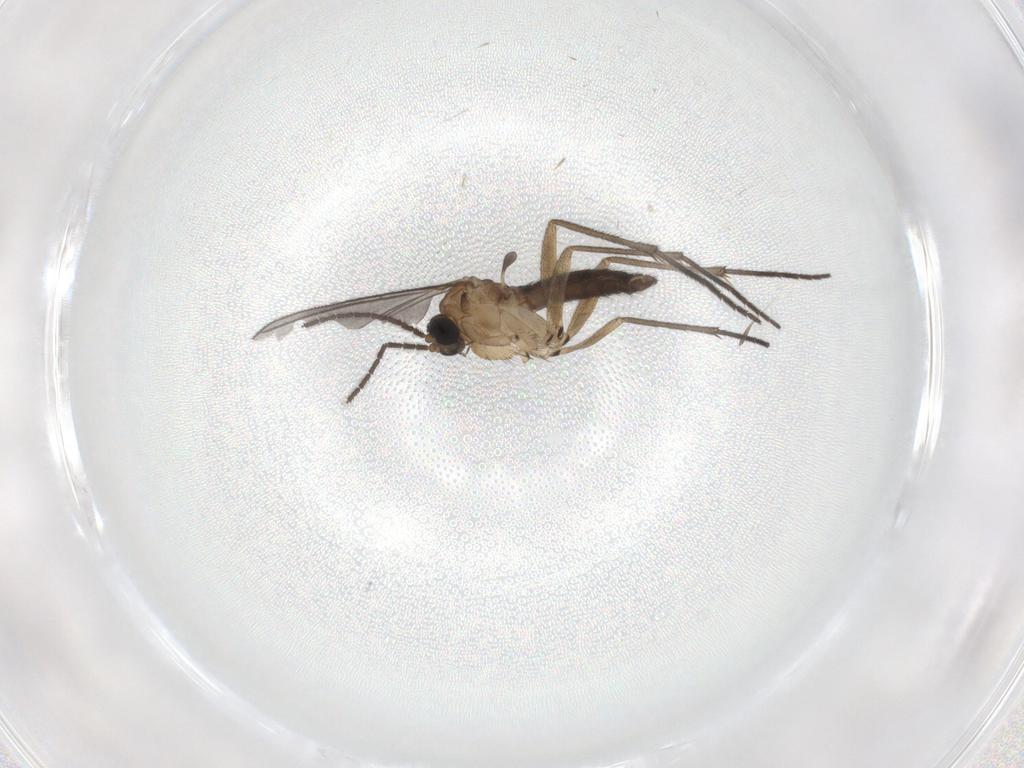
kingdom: Animalia
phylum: Arthropoda
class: Insecta
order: Diptera
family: Sciaridae
